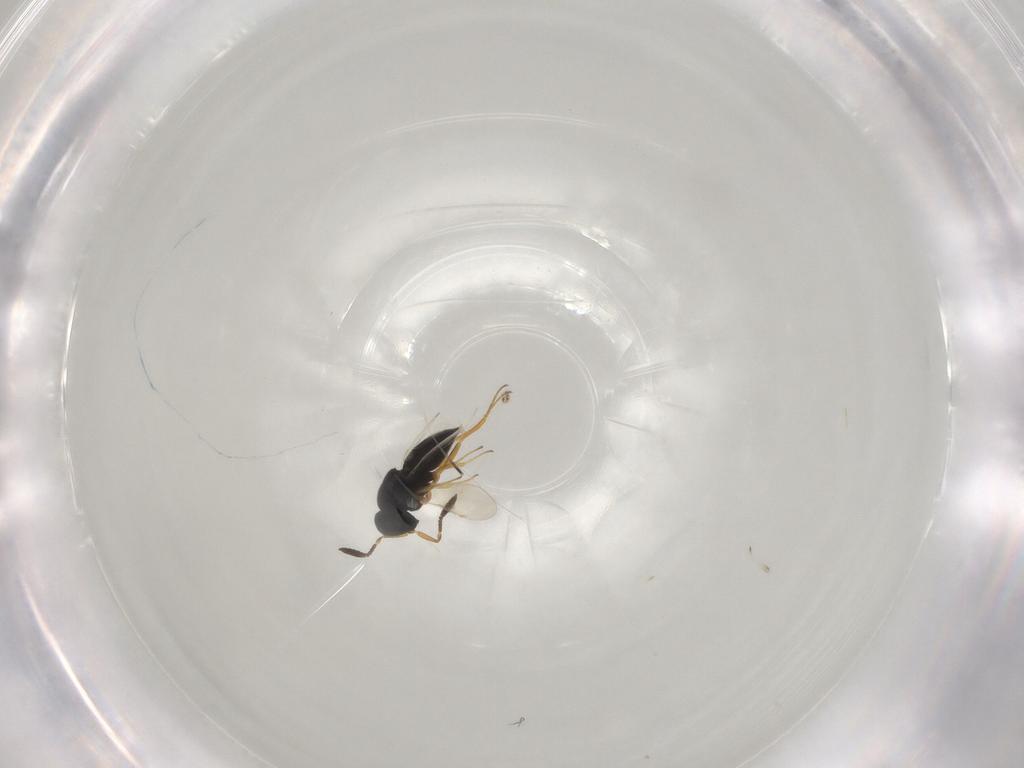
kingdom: Animalia
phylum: Arthropoda
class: Insecta
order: Hymenoptera
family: Scelionidae
